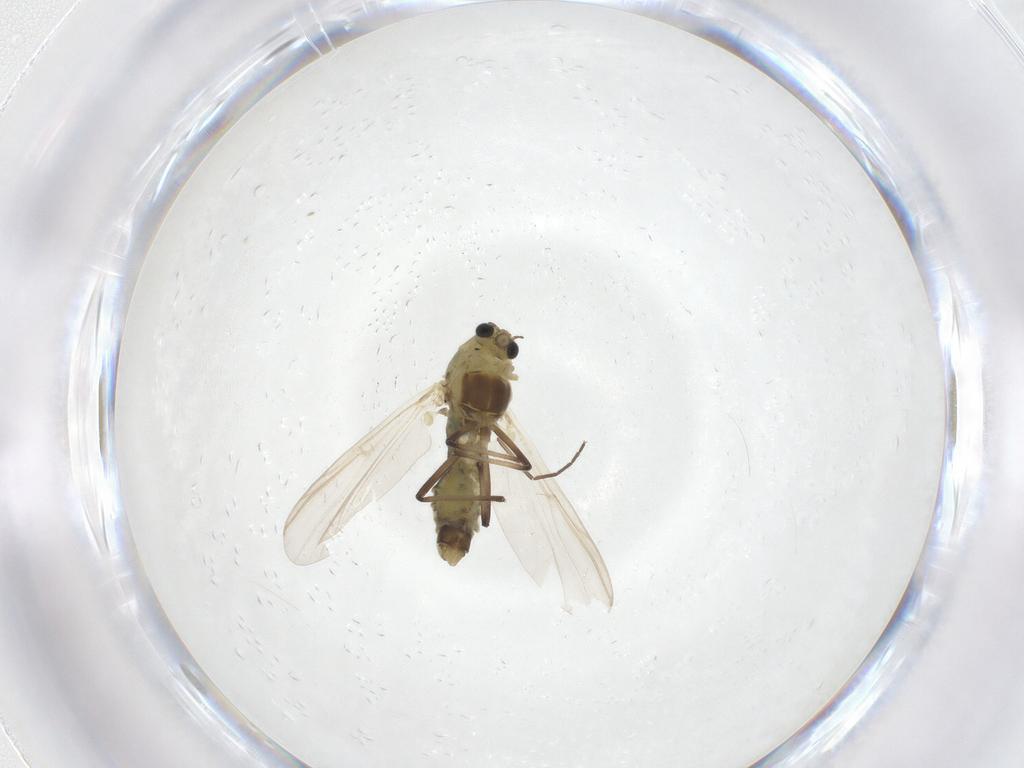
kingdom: Animalia
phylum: Arthropoda
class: Insecta
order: Diptera
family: Chironomidae
